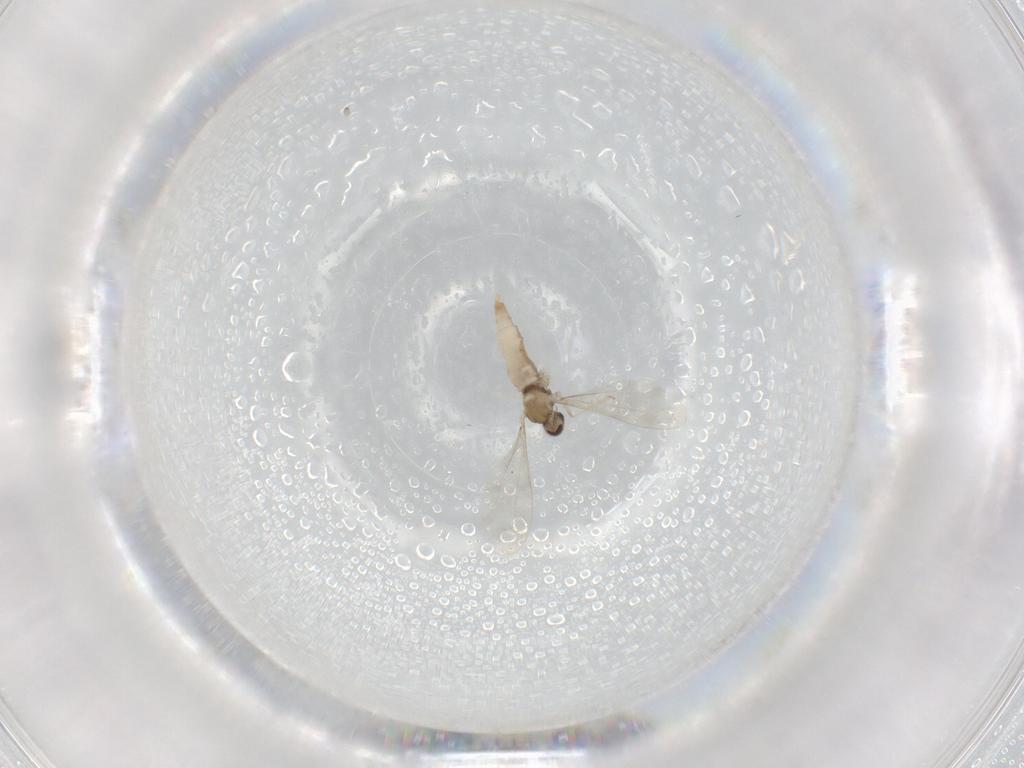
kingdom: Animalia
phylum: Arthropoda
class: Insecta
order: Diptera
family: Cecidomyiidae
